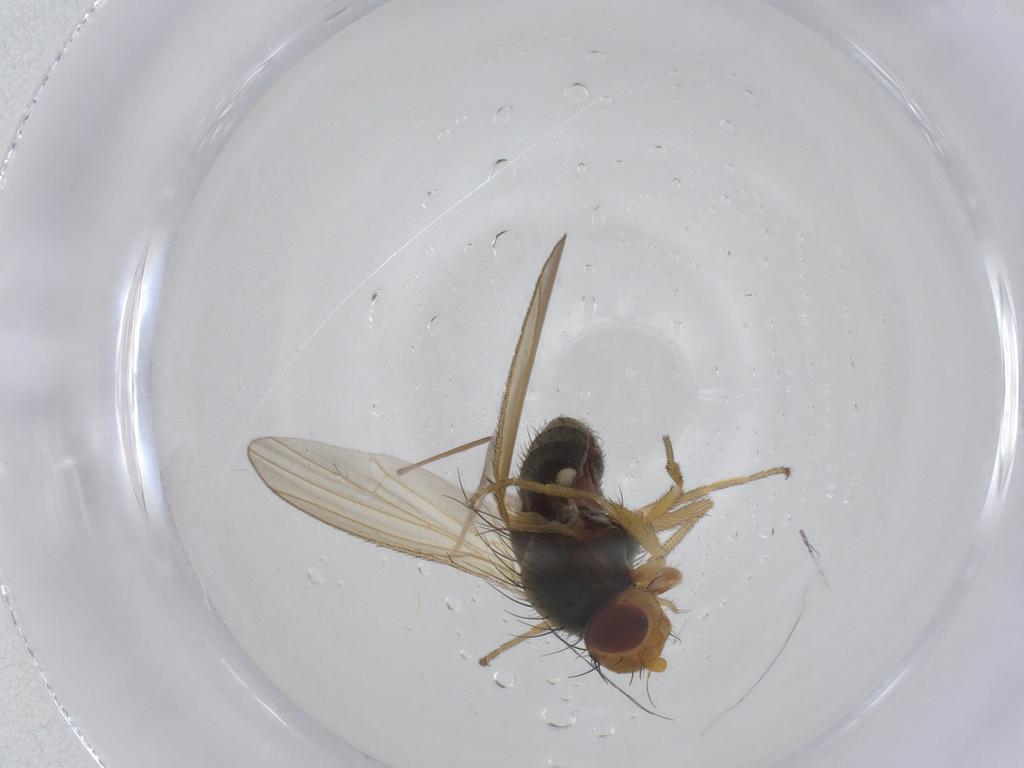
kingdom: Animalia
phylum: Arthropoda
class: Insecta
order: Diptera
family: Heleomyzidae
